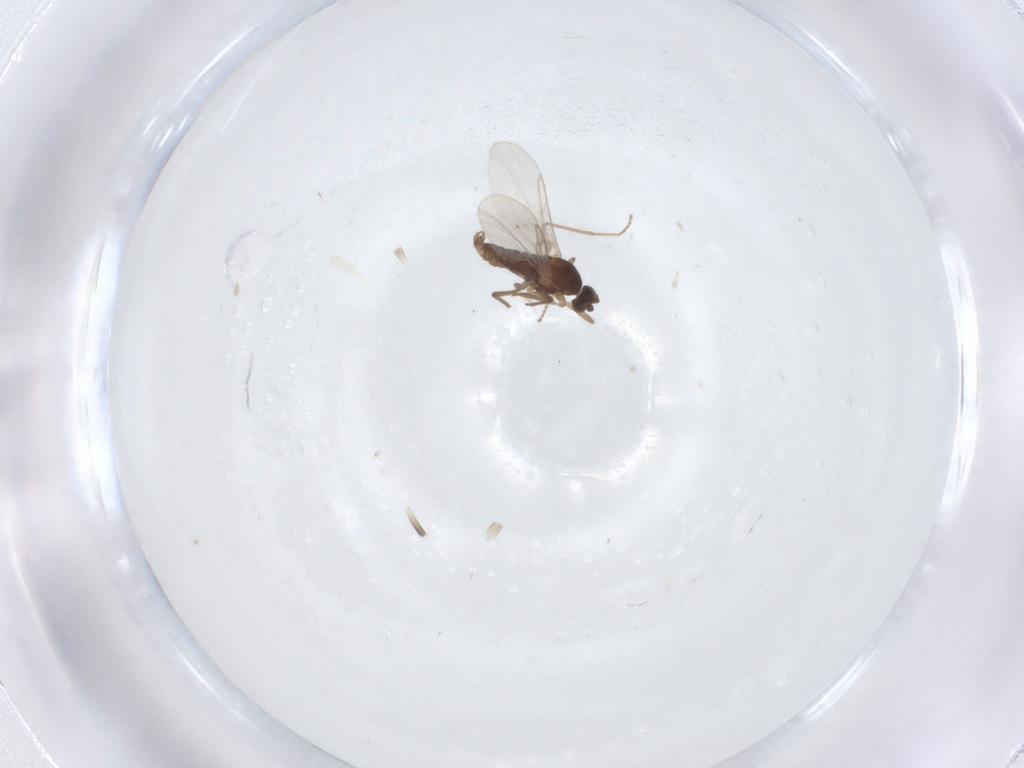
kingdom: Animalia
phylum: Arthropoda
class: Insecta
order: Diptera
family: Cecidomyiidae
